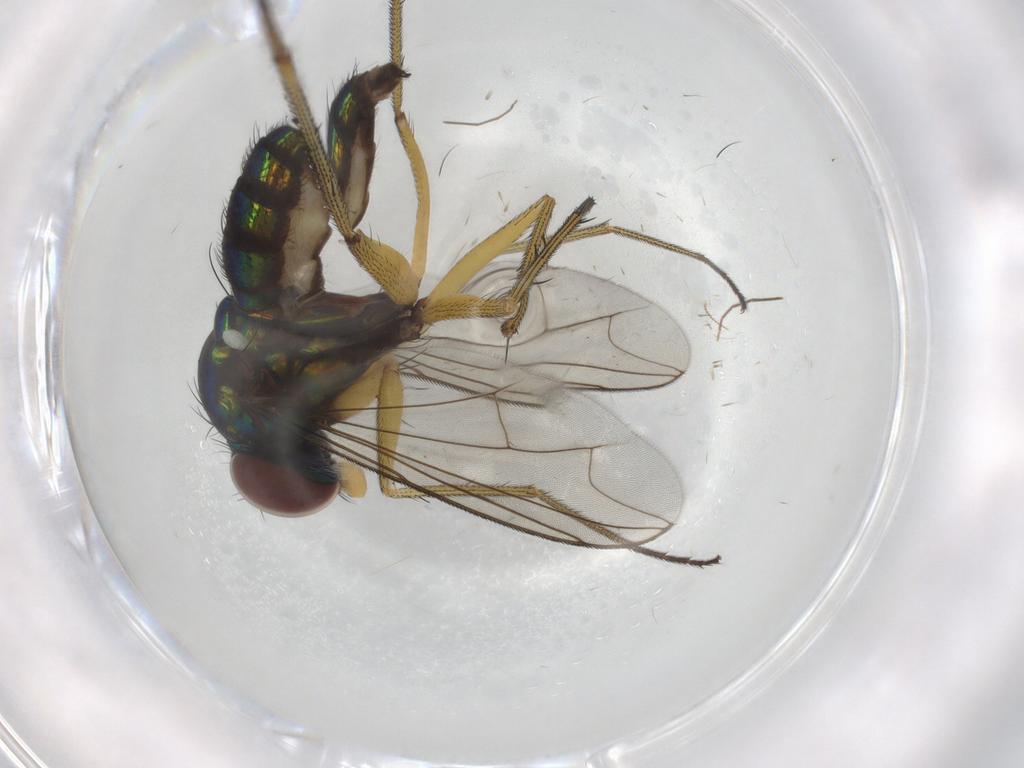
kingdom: Animalia
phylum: Arthropoda
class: Insecta
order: Diptera
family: Dolichopodidae
